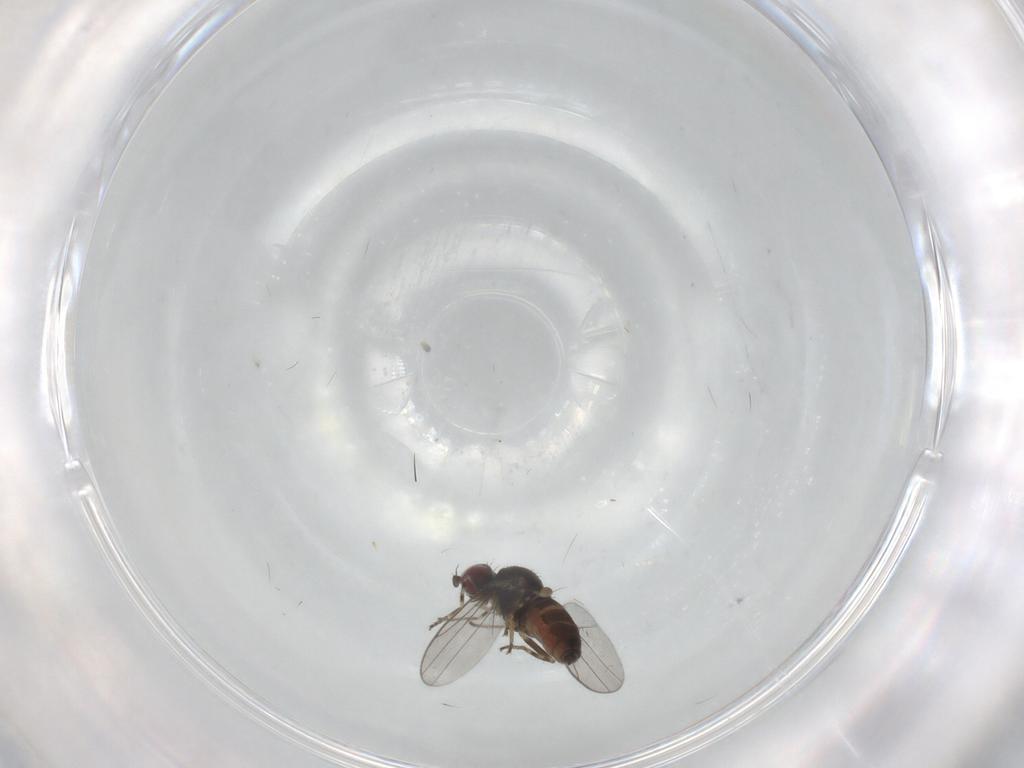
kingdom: Animalia
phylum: Arthropoda
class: Insecta
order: Diptera
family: Chloropidae
